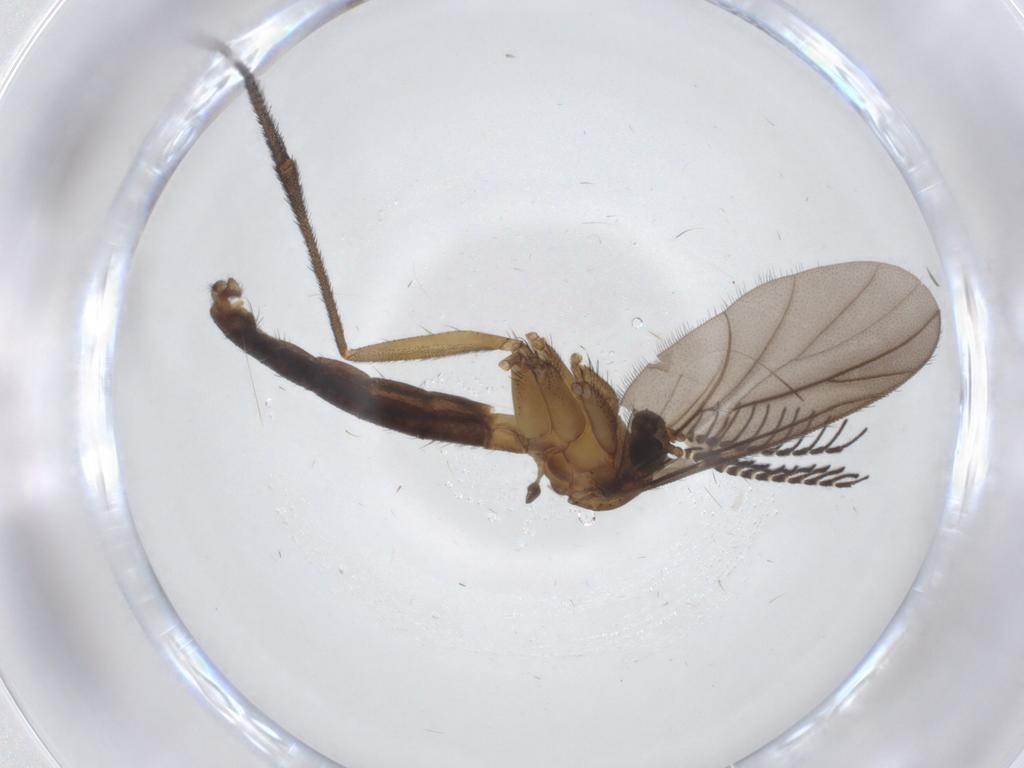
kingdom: Animalia
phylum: Arthropoda
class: Insecta
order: Diptera
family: Ditomyiidae
